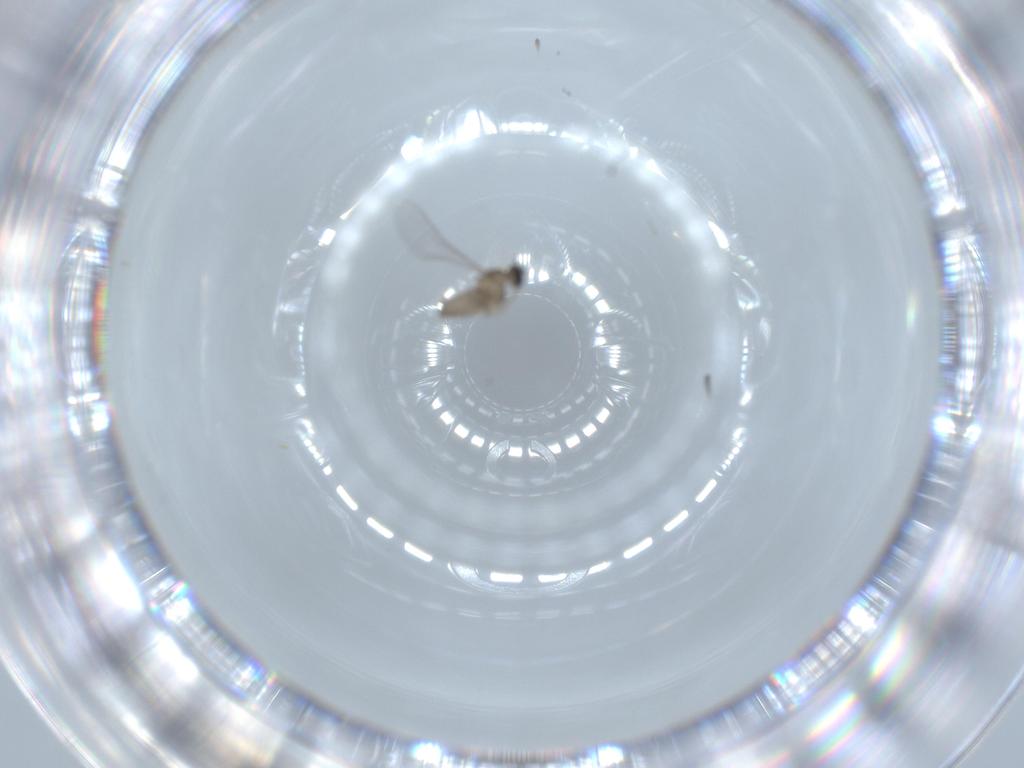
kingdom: Animalia
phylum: Arthropoda
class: Insecta
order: Diptera
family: Cecidomyiidae
